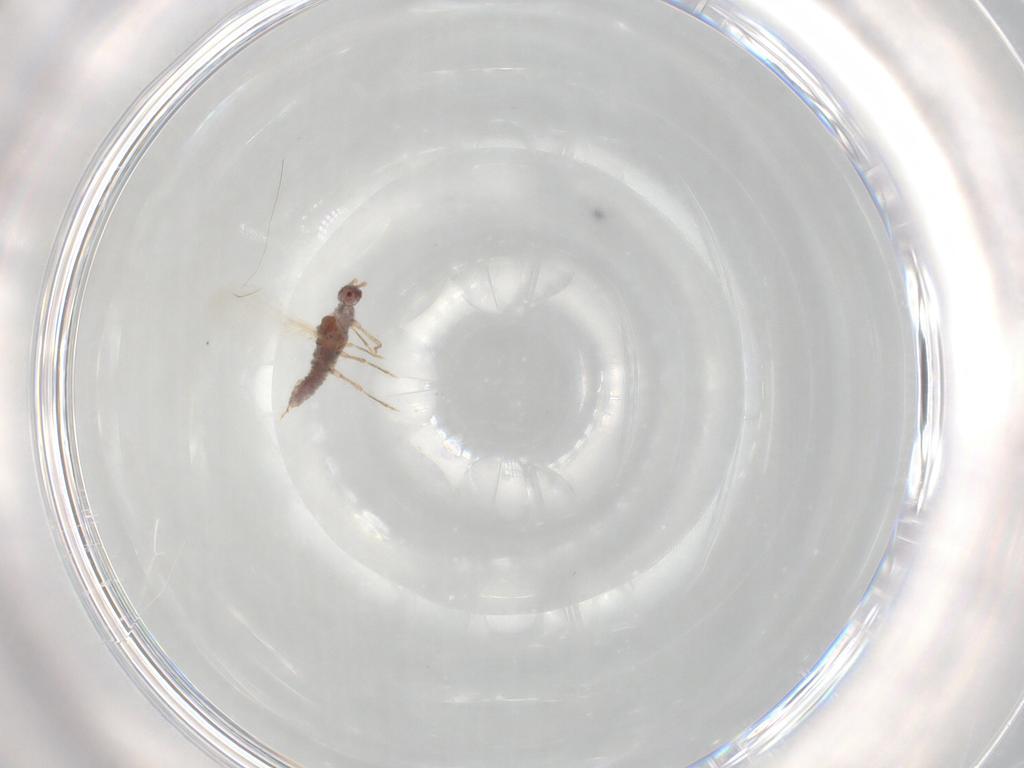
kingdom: Animalia
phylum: Arthropoda
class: Insecta
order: Hemiptera
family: Pseudococcidae
